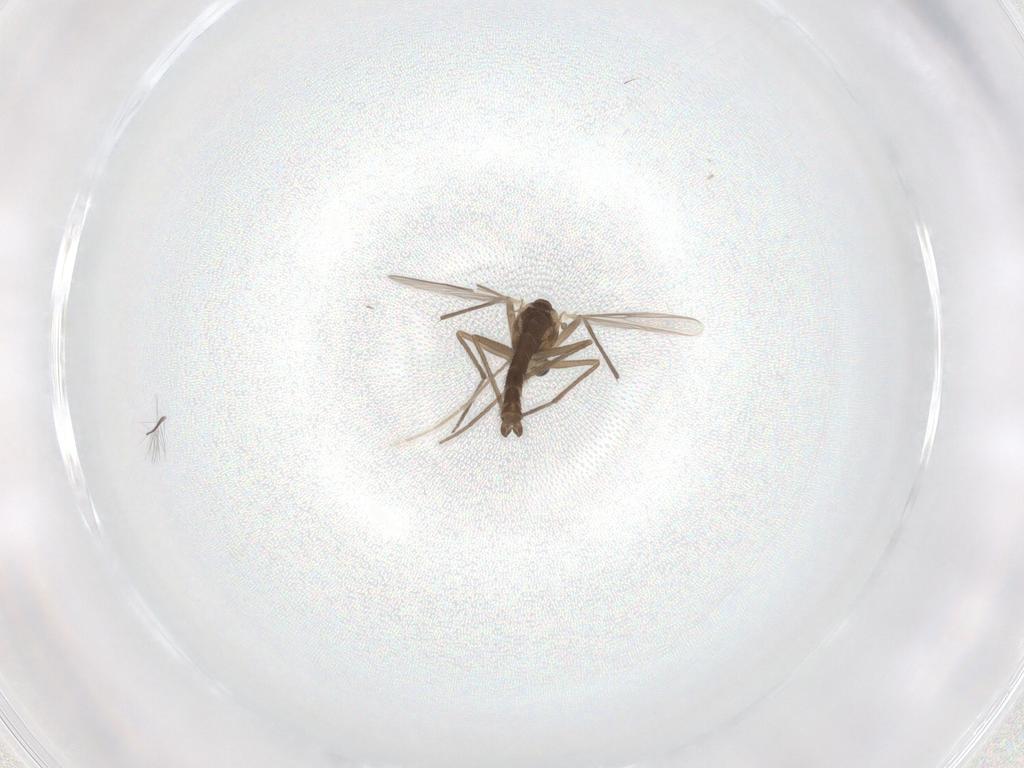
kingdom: Animalia
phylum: Arthropoda
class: Insecta
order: Diptera
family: Chironomidae
